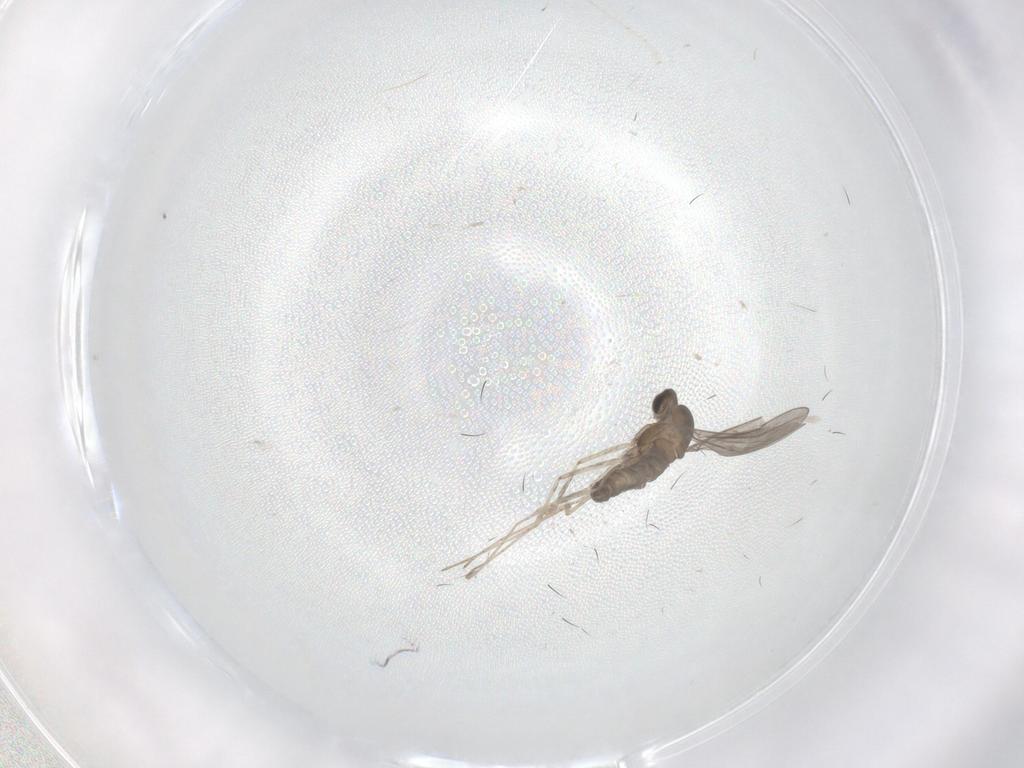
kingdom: Animalia
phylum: Arthropoda
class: Insecta
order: Diptera
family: Cecidomyiidae
